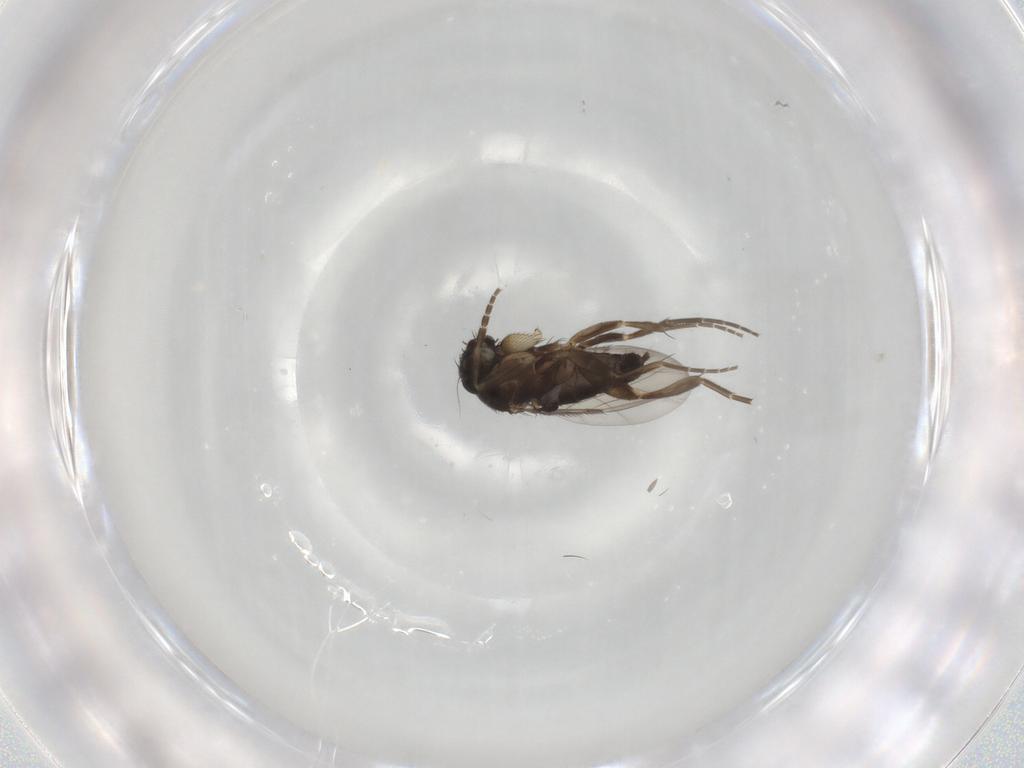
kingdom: Animalia
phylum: Arthropoda
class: Insecta
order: Diptera
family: Phoridae
